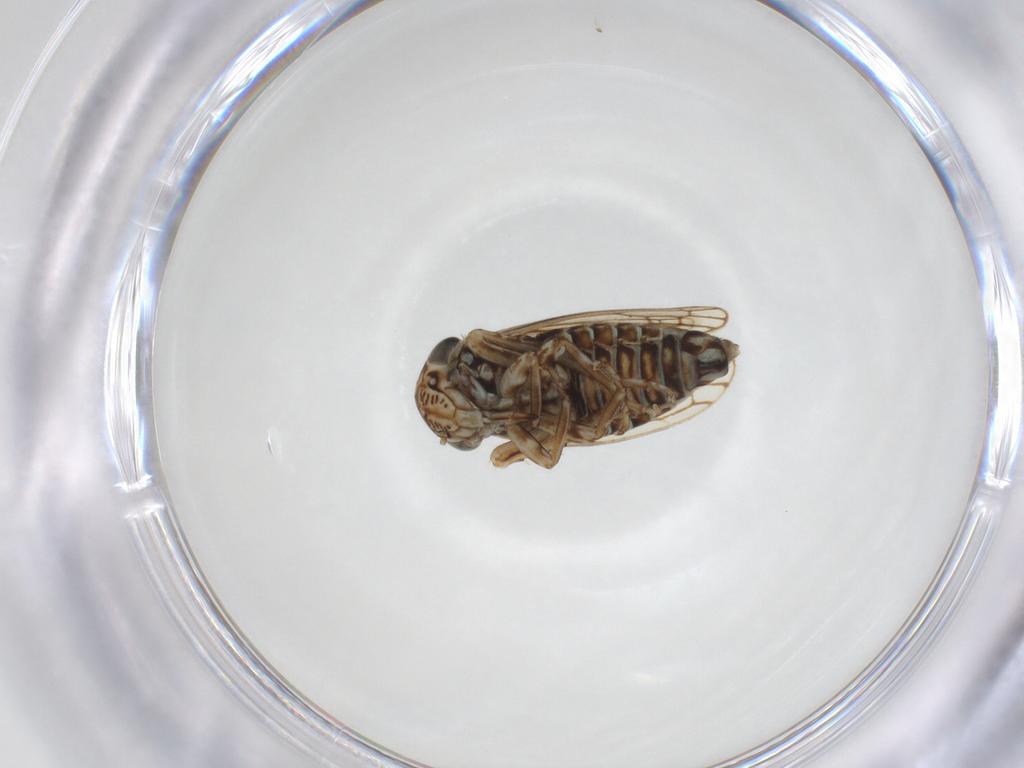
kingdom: Animalia
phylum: Arthropoda
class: Insecta
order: Hemiptera
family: Cicadellidae
